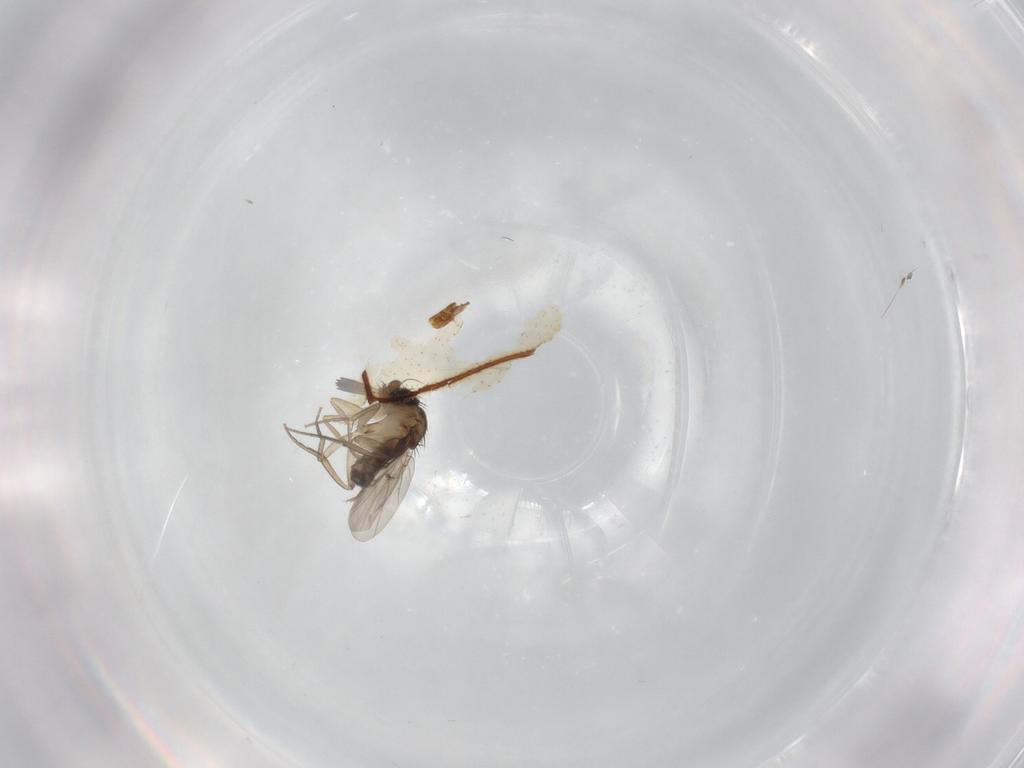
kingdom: Animalia
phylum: Arthropoda
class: Insecta
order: Diptera
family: Phoridae
